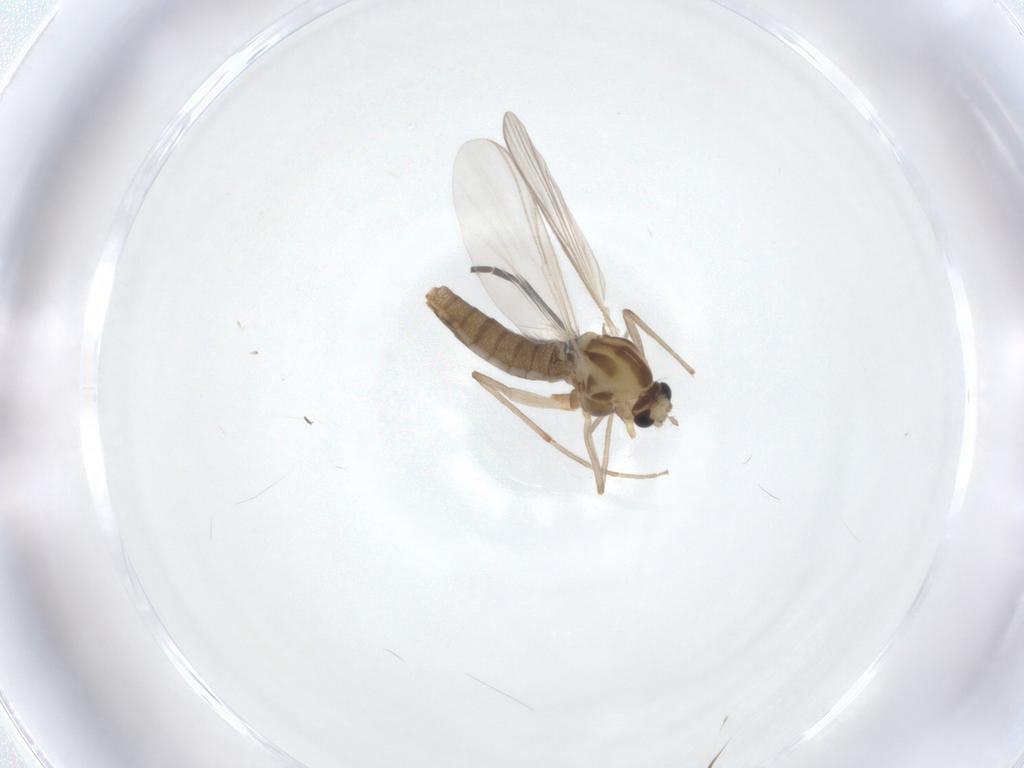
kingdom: Animalia
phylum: Arthropoda
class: Insecta
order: Diptera
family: Chironomidae
